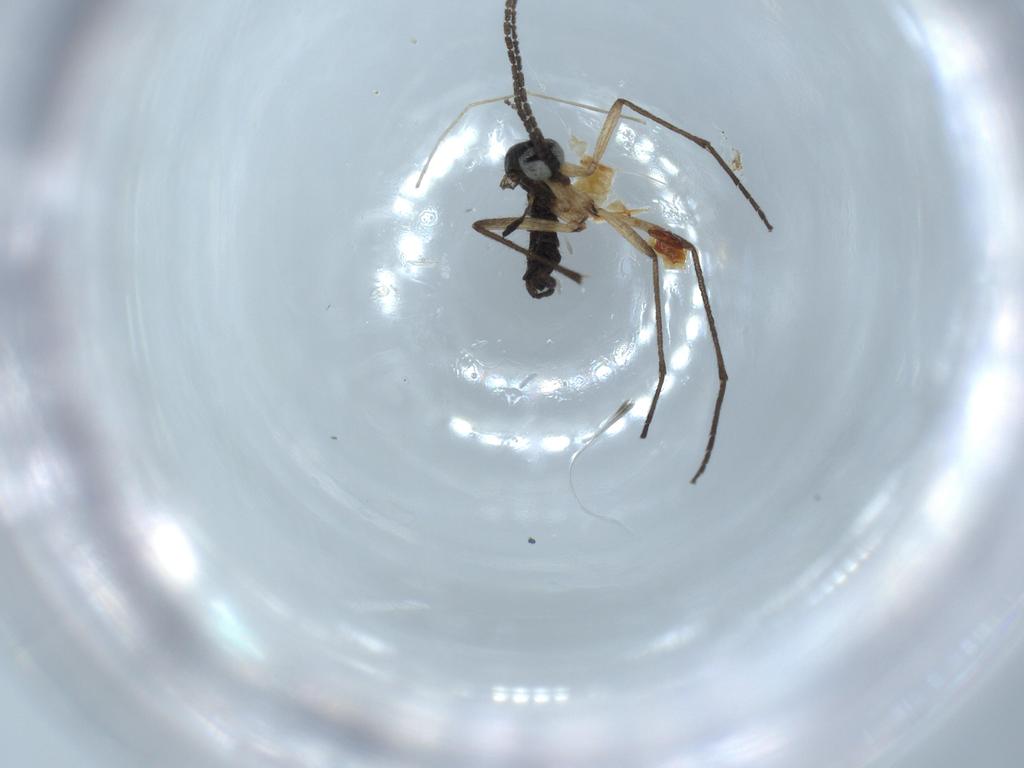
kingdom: Animalia
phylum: Arthropoda
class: Insecta
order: Diptera
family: Sciaridae
